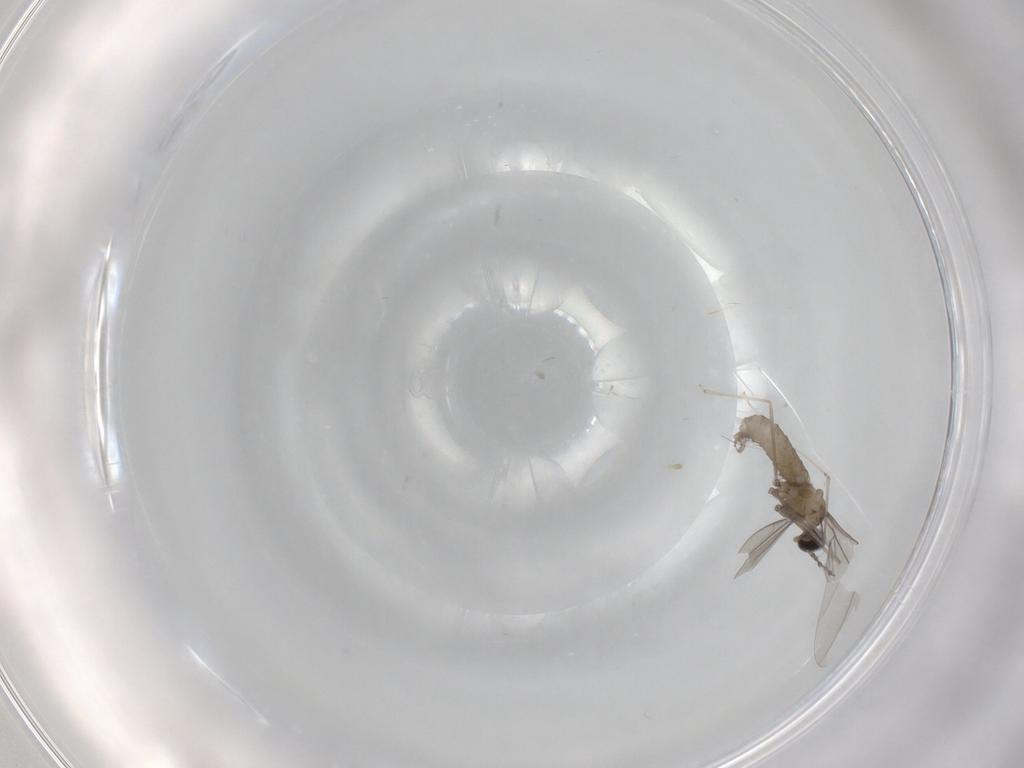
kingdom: Animalia
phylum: Arthropoda
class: Insecta
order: Diptera
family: Cecidomyiidae
